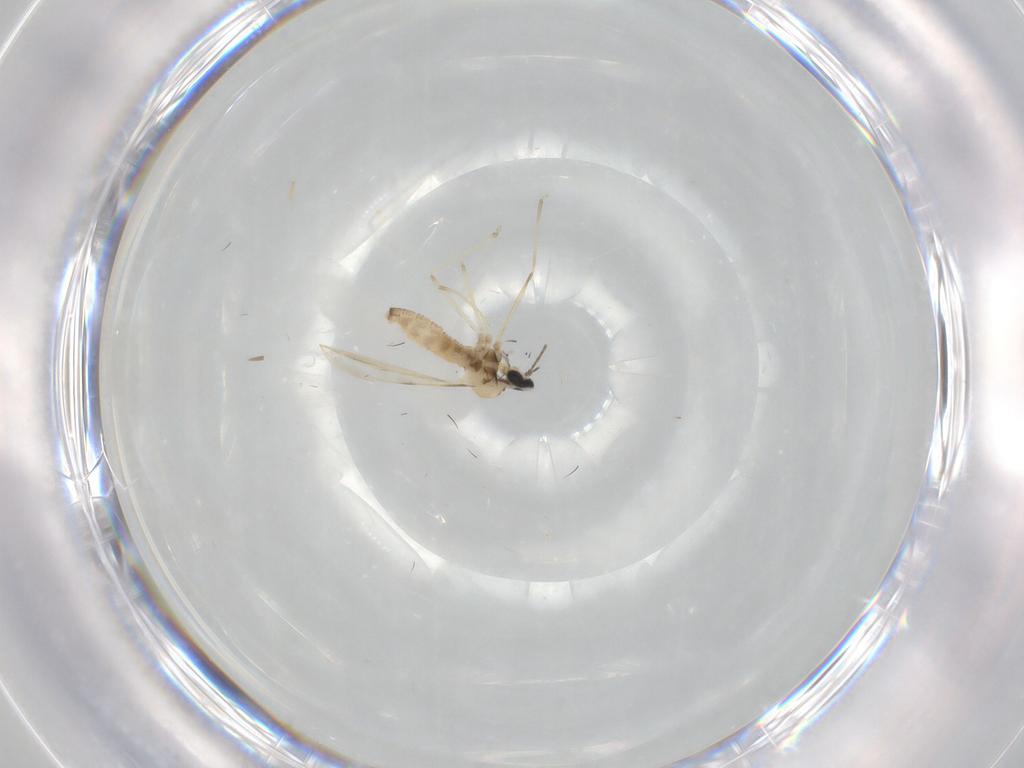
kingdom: Animalia
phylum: Arthropoda
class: Insecta
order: Diptera
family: Cecidomyiidae
